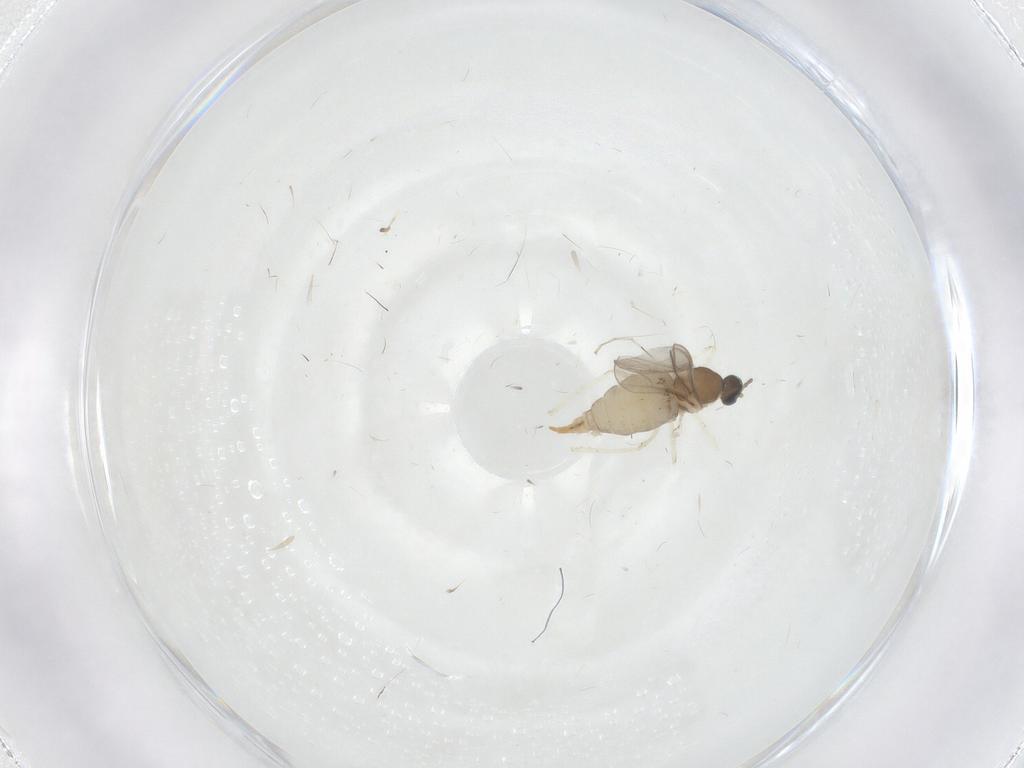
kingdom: Animalia
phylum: Arthropoda
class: Insecta
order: Diptera
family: Cecidomyiidae
